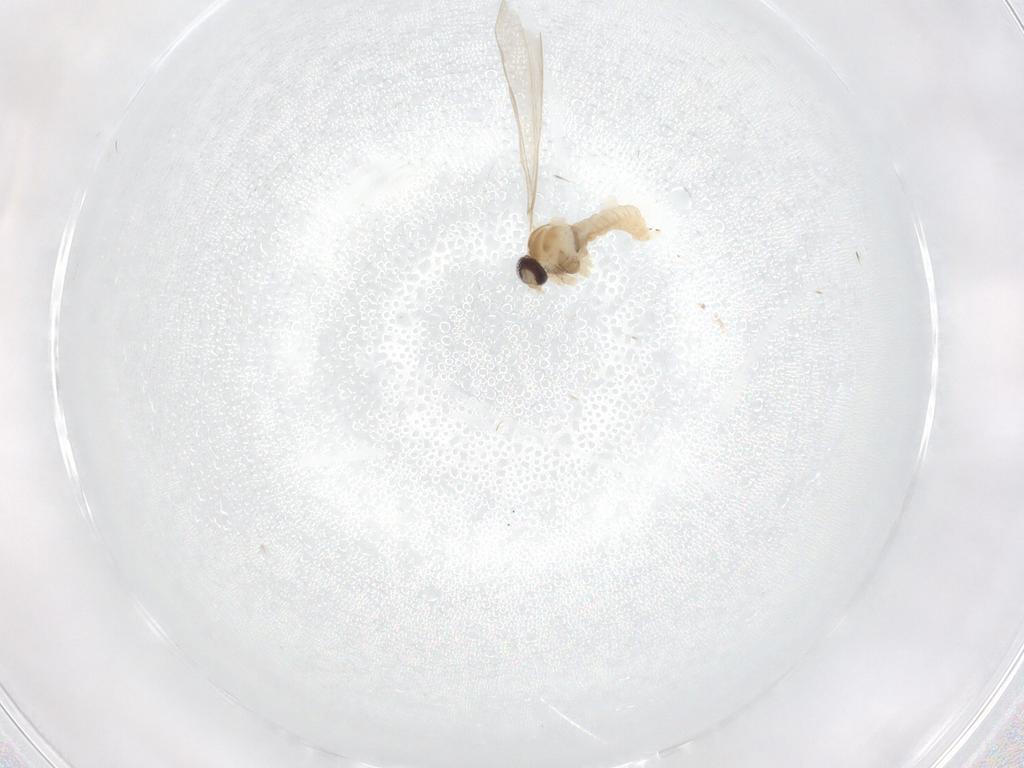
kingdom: Animalia
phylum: Arthropoda
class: Insecta
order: Diptera
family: Cecidomyiidae
